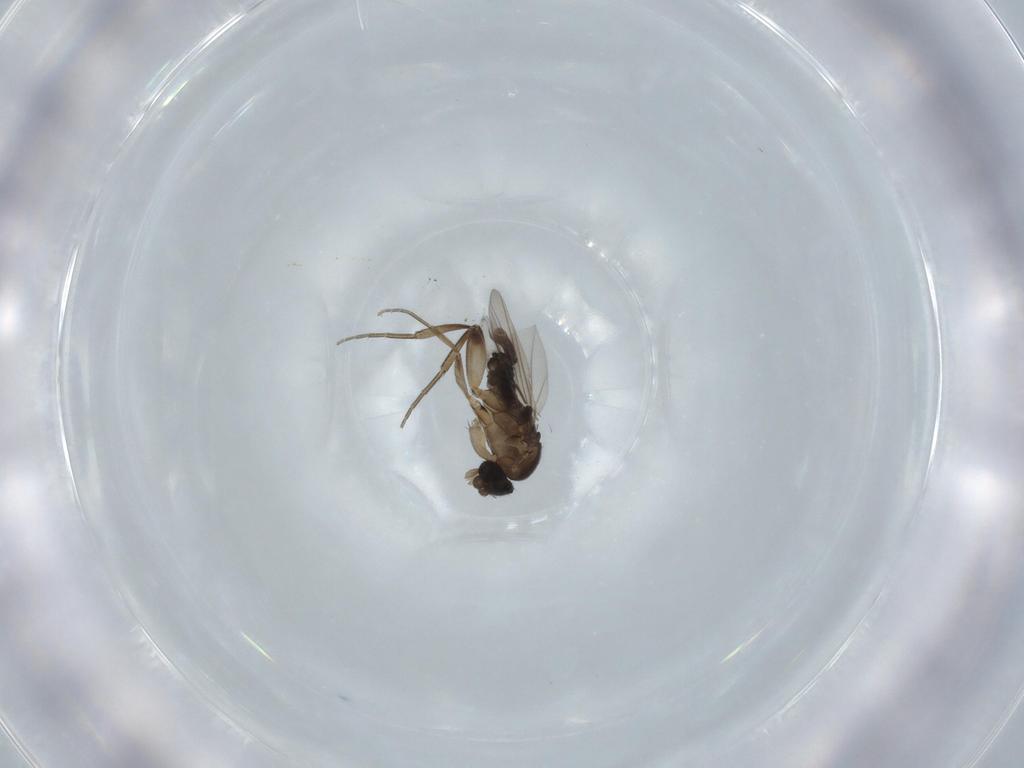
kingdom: Animalia
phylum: Arthropoda
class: Insecta
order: Diptera
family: Phoridae
